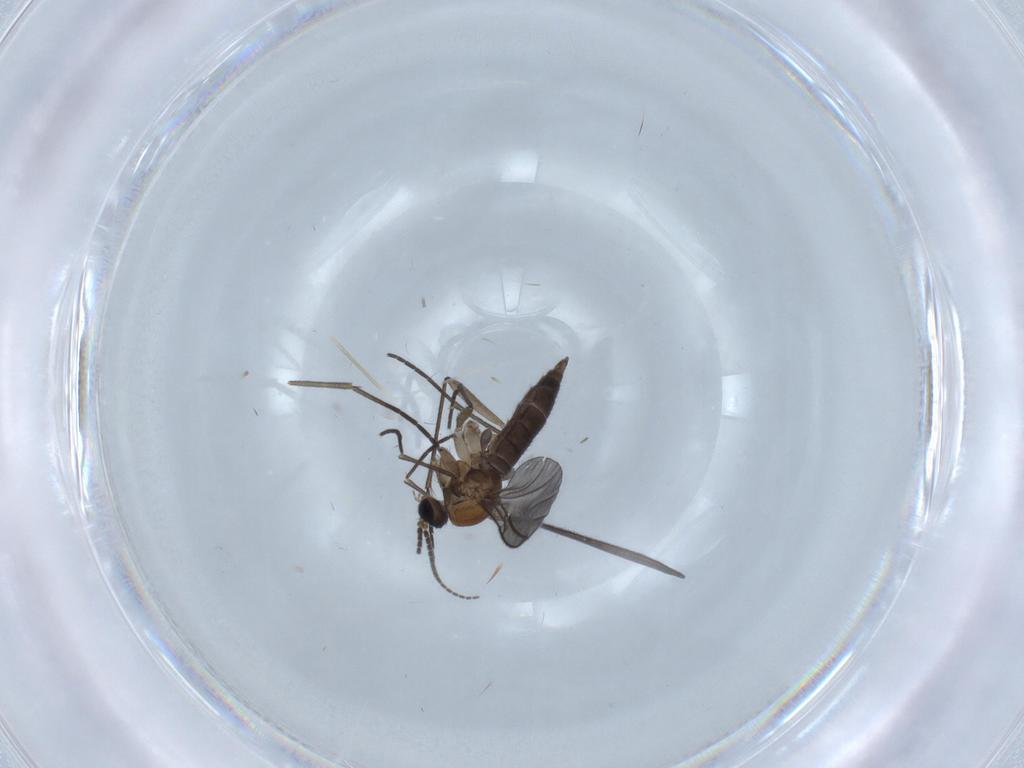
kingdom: Animalia
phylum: Arthropoda
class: Insecta
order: Diptera
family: Sciaridae
